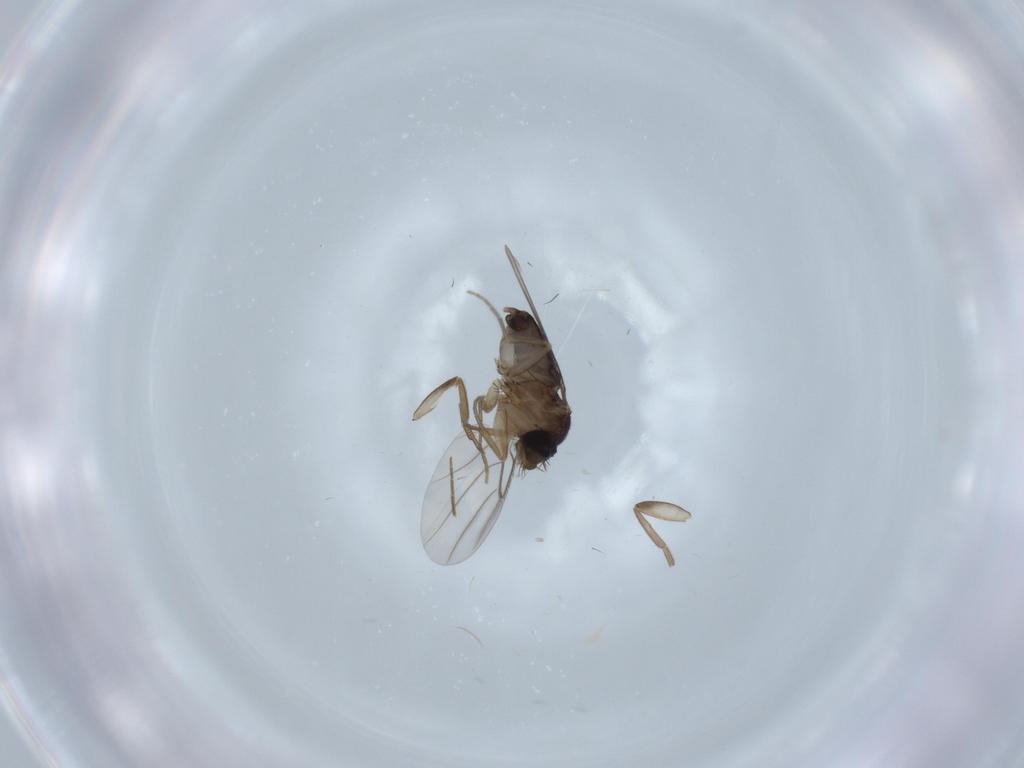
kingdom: Animalia
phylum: Arthropoda
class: Insecta
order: Diptera
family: Phoridae
